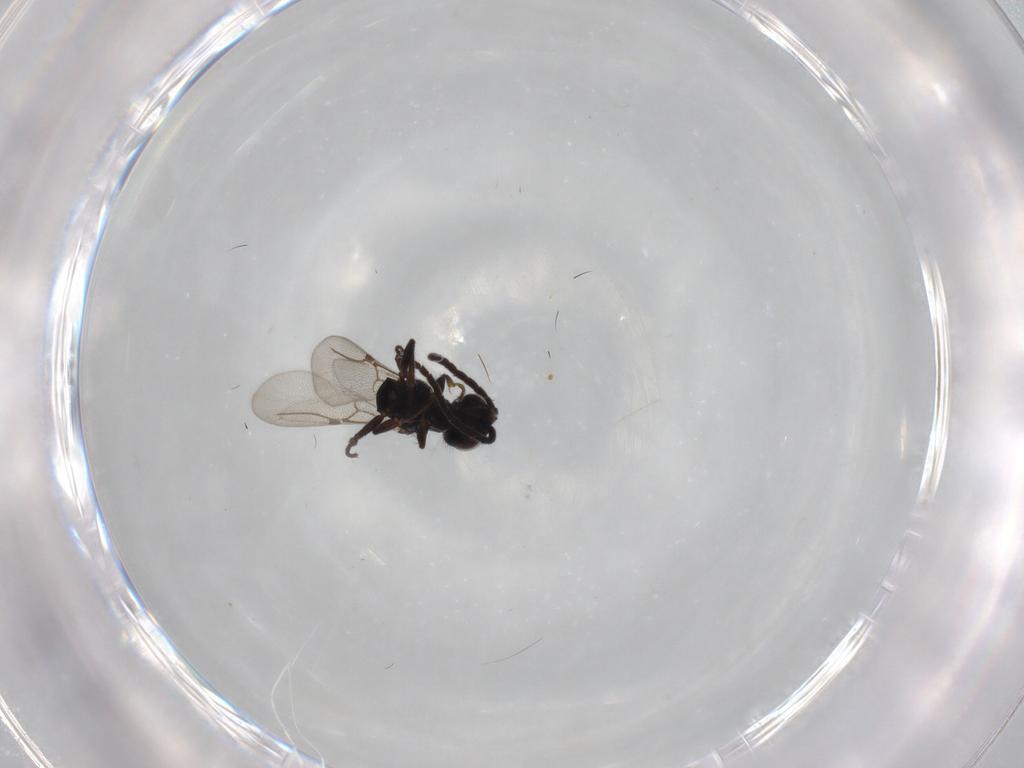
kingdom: Animalia
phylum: Arthropoda
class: Insecta
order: Hymenoptera
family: Bethylidae
